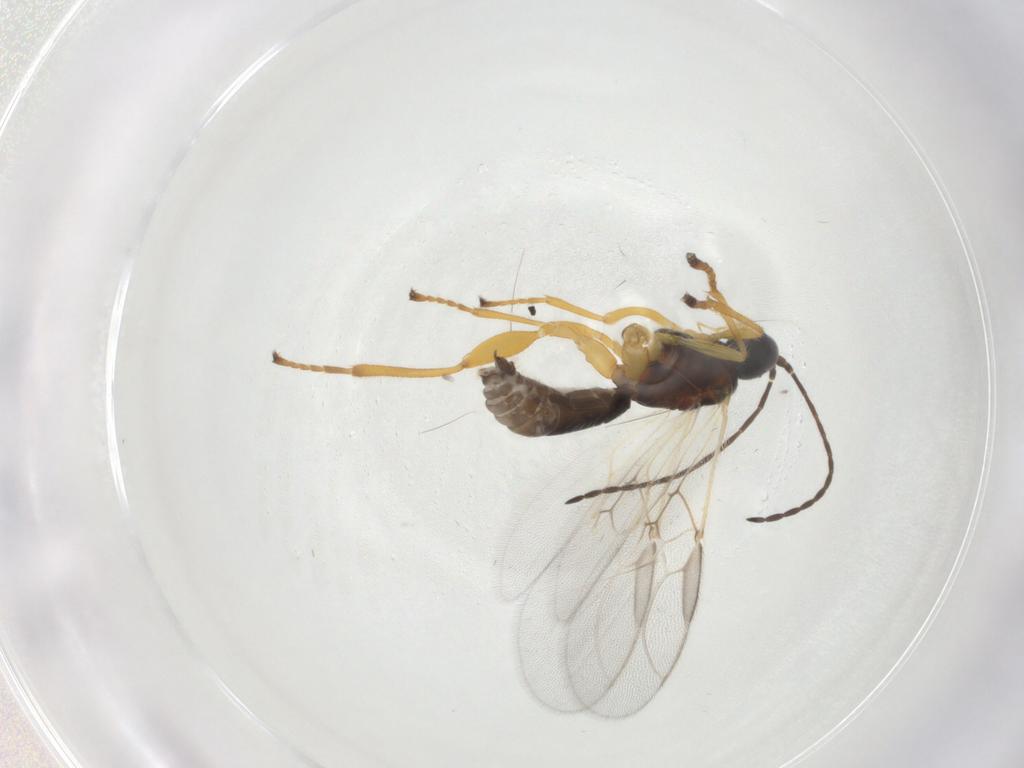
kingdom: Animalia
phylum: Arthropoda
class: Insecta
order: Hymenoptera
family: Braconidae
